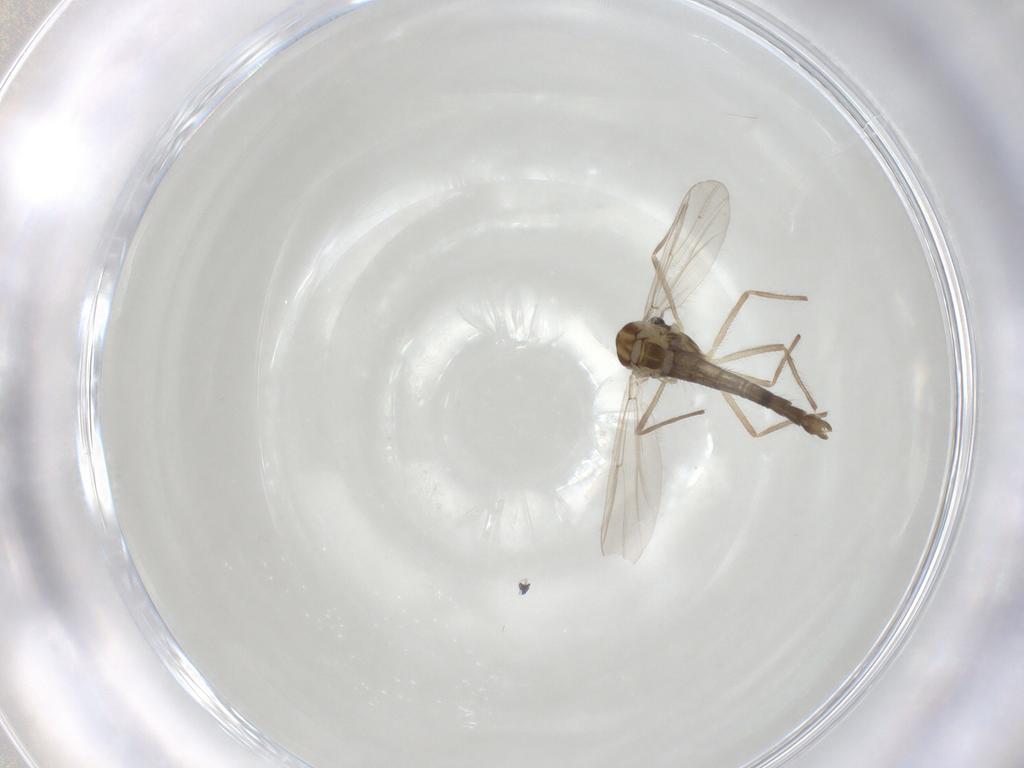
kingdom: Animalia
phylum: Arthropoda
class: Insecta
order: Diptera
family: Chironomidae
